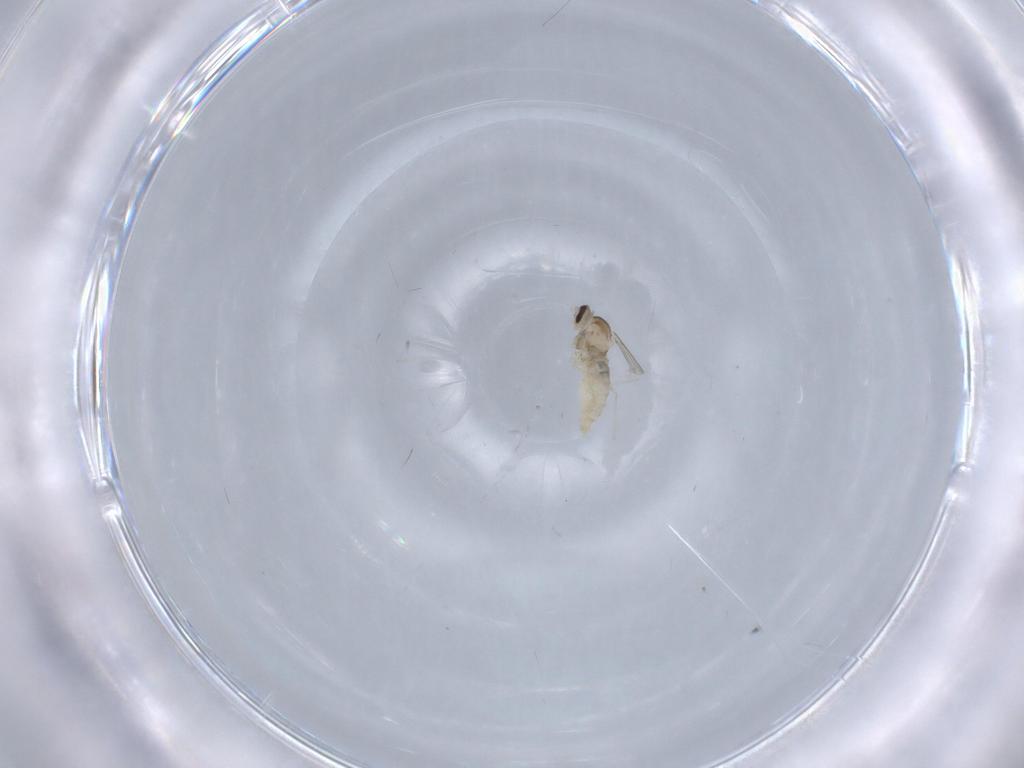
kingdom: Animalia
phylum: Arthropoda
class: Insecta
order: Diptera
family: Cecidomyiidae
